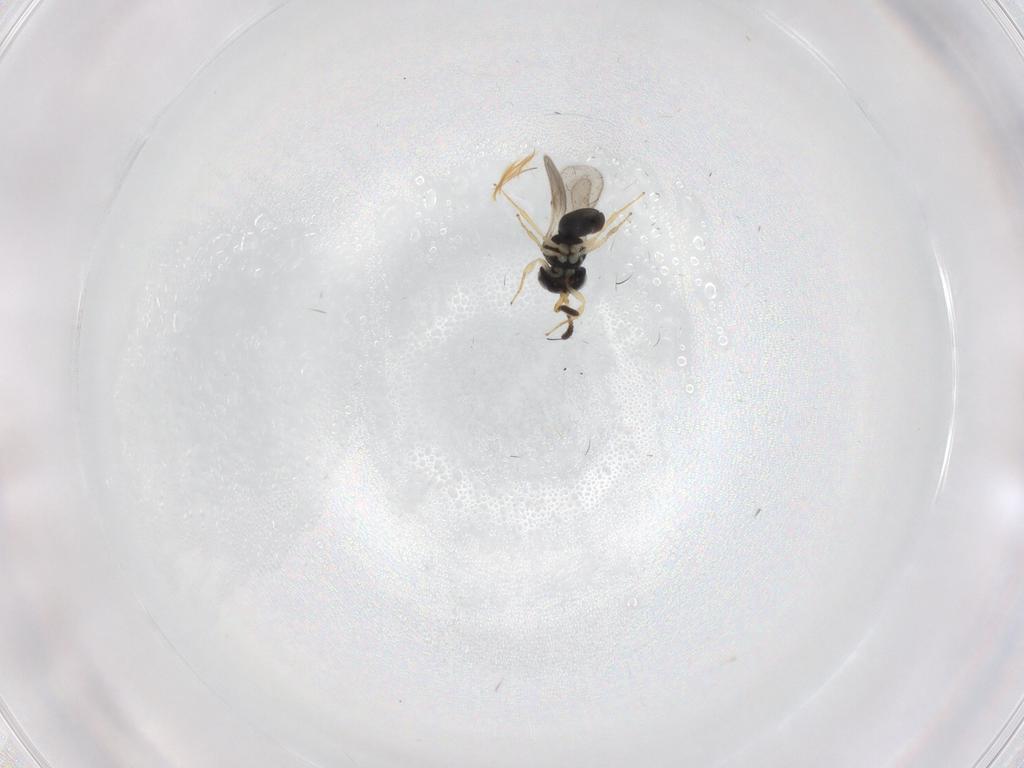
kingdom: Animalia
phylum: Arthropoda
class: Insecta
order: Hymenoptera
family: Scelionidae
